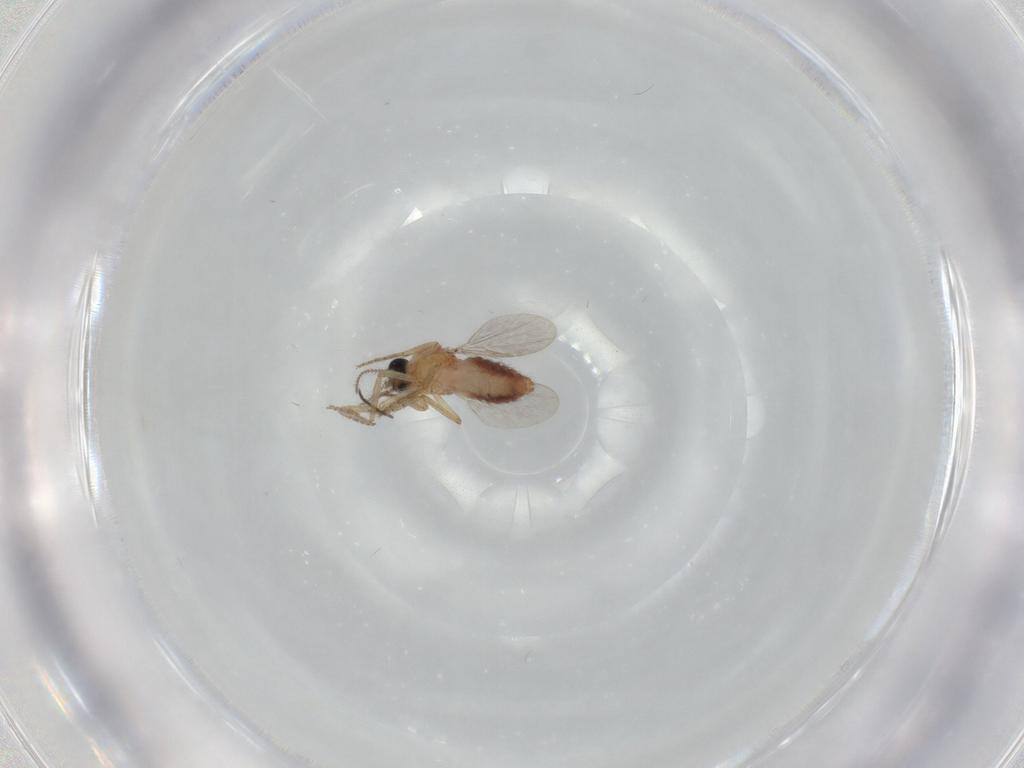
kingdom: Animalia
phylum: Arthropoda
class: Insecta
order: Diptera
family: Ceratopogonidae
